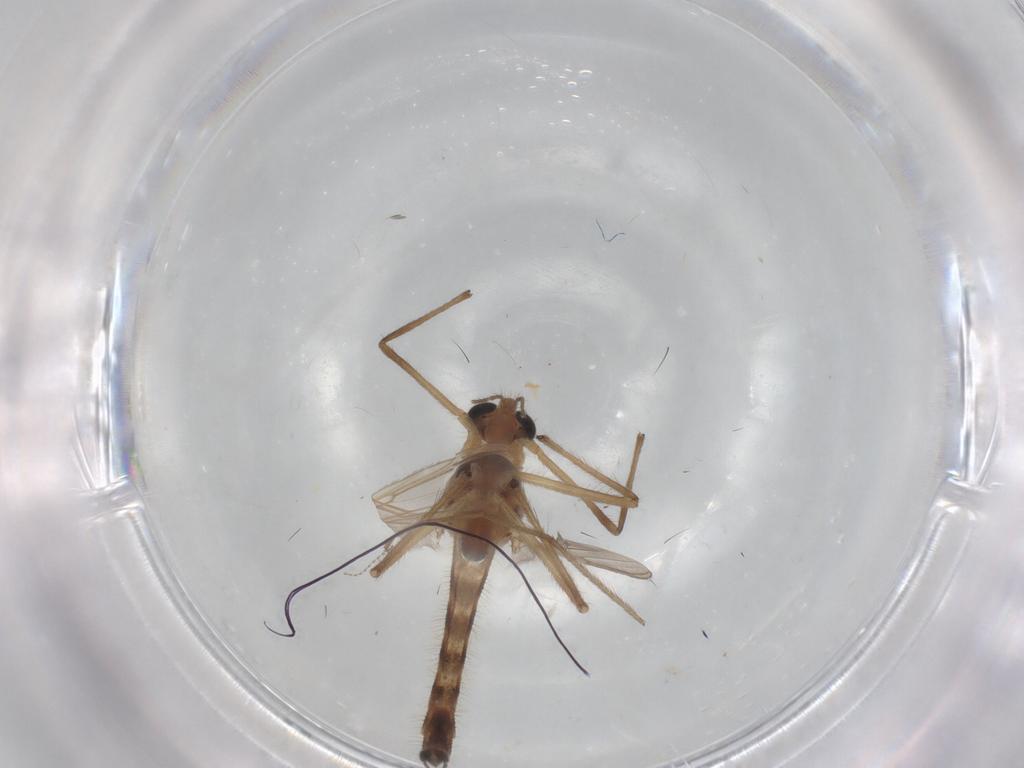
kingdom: Animalia
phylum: Arthropoda
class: Insecta
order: Diptera
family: Chironomidae
